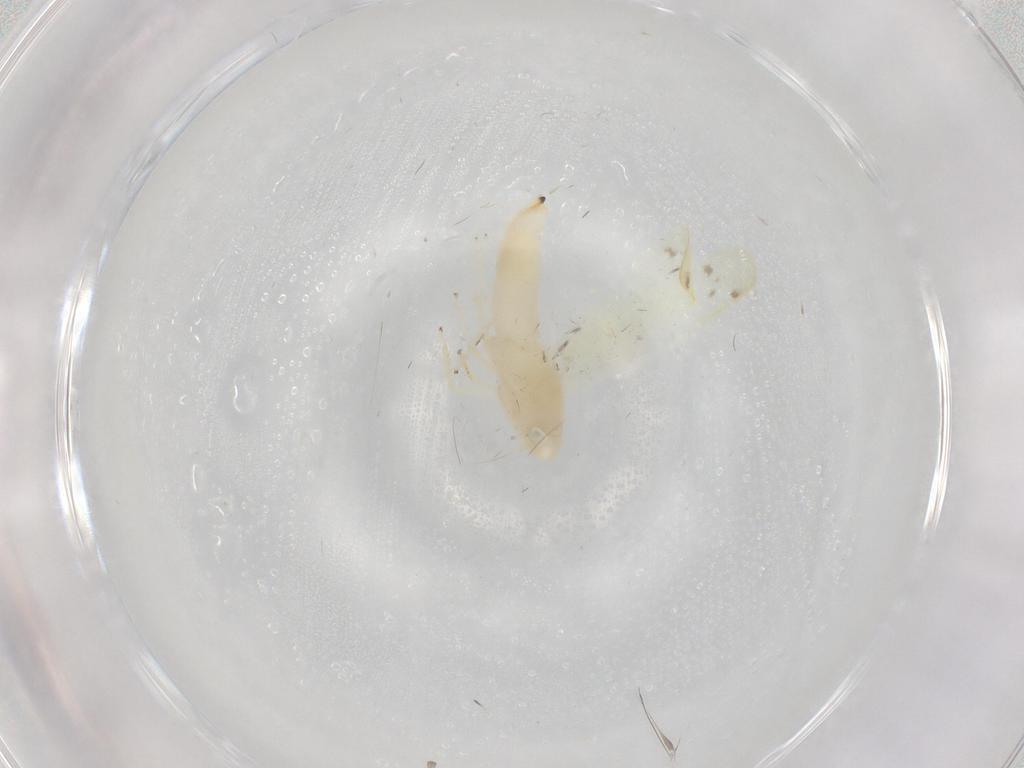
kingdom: Animalia
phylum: Arthropoda
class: Insecta
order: Hemiptera
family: Cicadellidae
